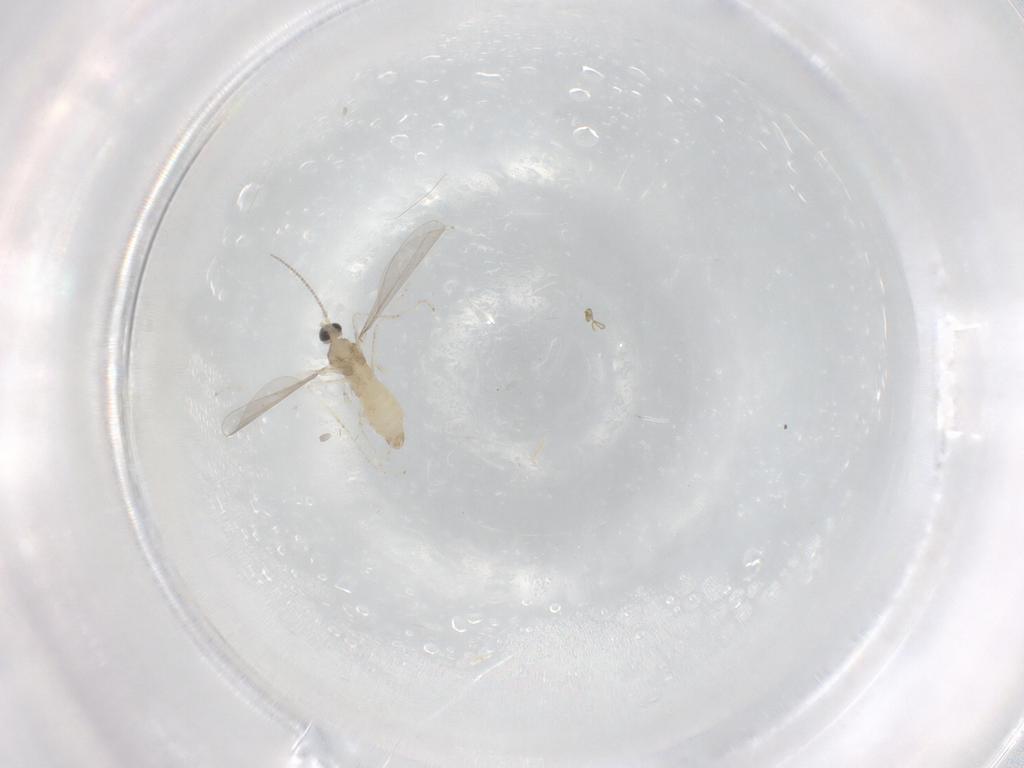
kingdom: Animalia
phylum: Arthropoda
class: Insecta
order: Diptera
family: Cecidomyiidae
